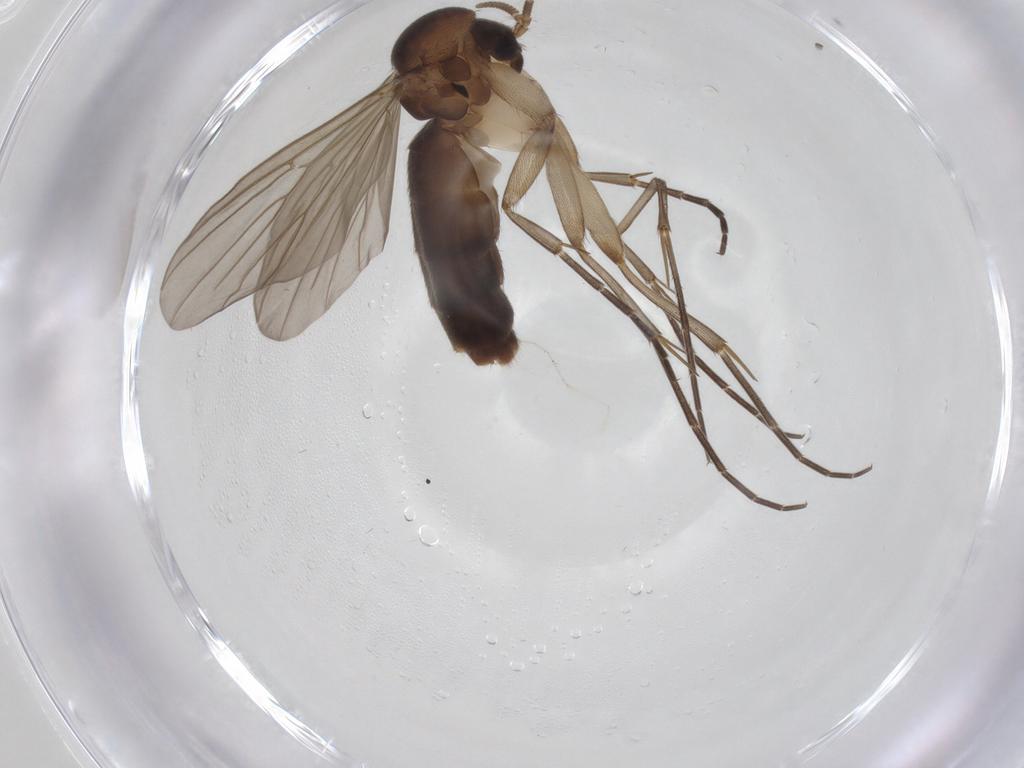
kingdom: Animalia
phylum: Arthropoda
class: Insecta
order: Diptera
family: Mycetophilidae
